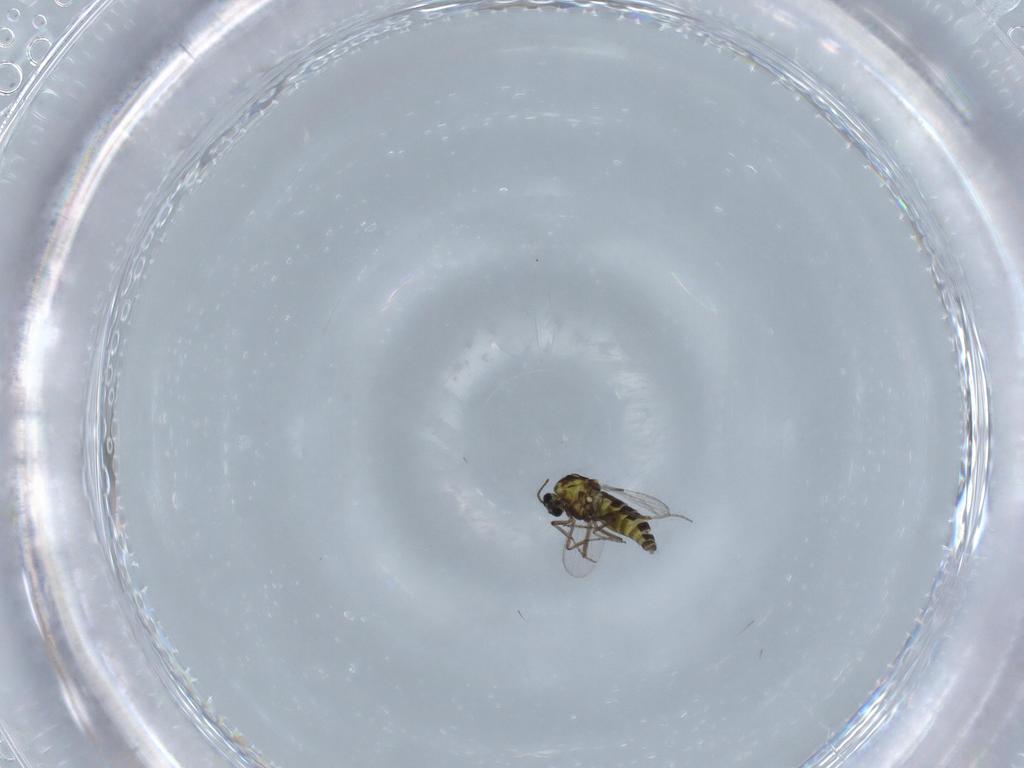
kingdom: Animalia
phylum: Arthropoda
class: Insecta
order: Diptera
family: Ceratopogonidae
